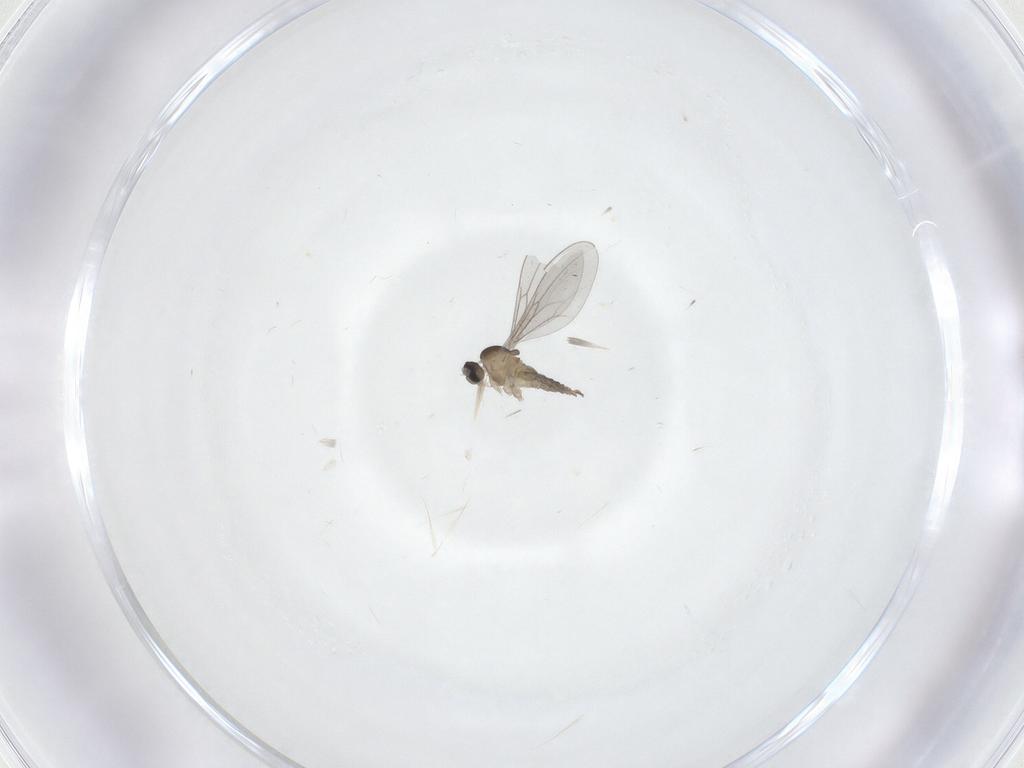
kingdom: Animalia
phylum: Arthropoda
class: Insecta
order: Diptera
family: Cecidomyiidae
